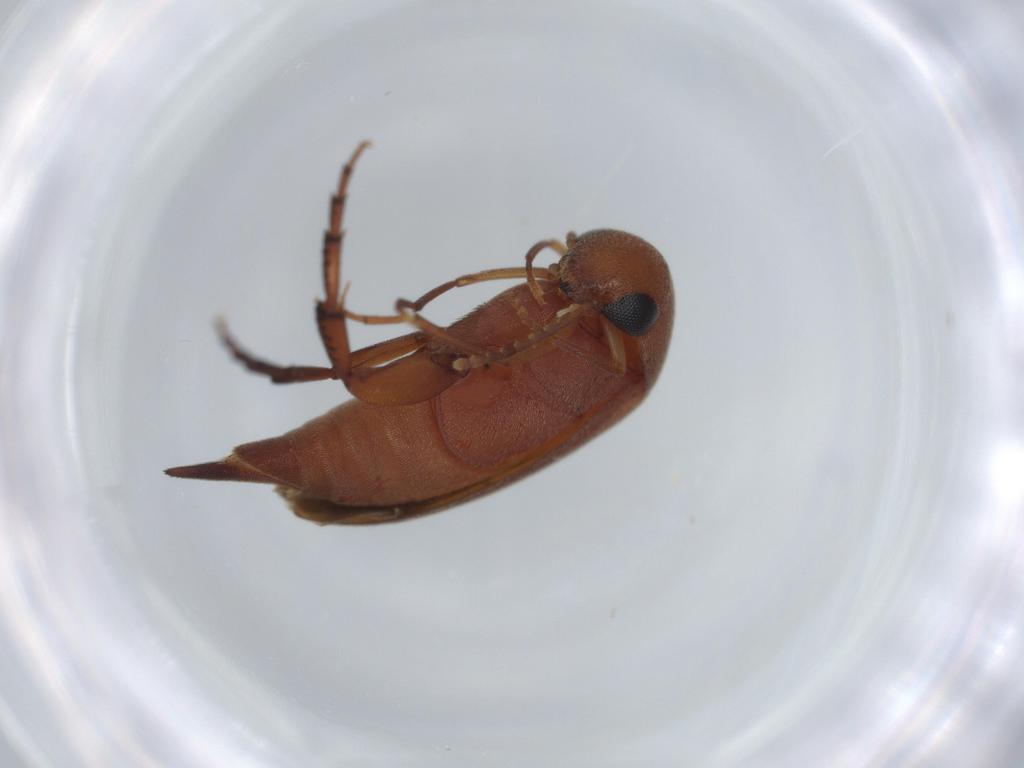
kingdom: Animalia
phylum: Arthropoda
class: Insecta
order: Coleoptera
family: Mordellidae
